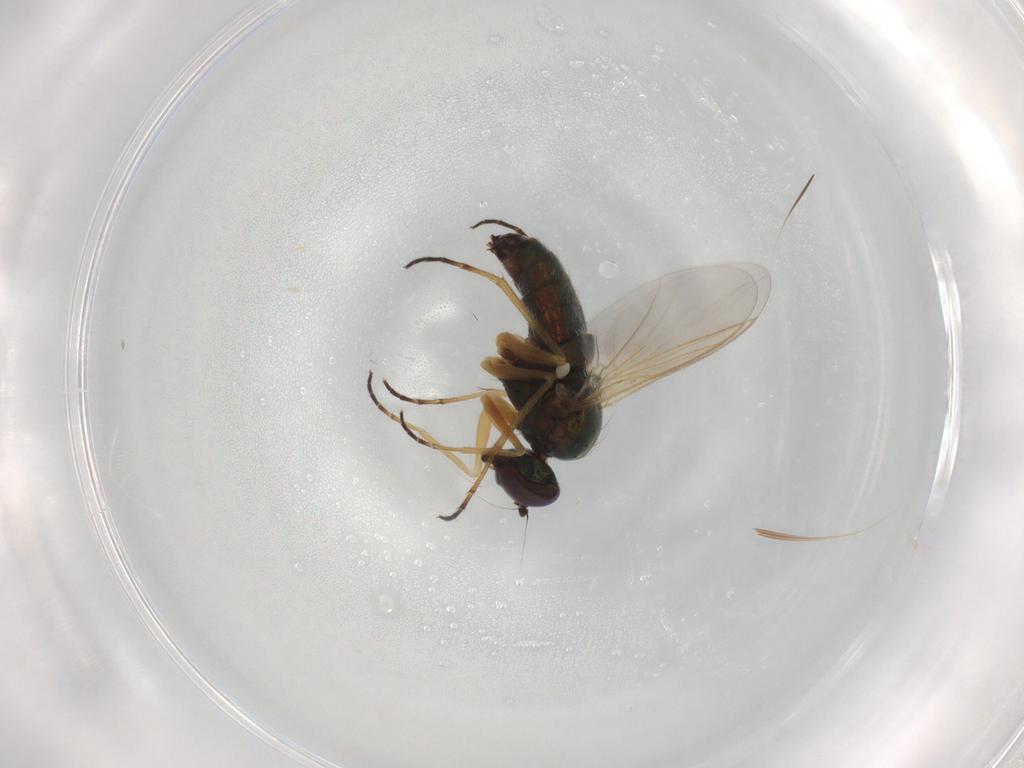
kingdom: Animalia
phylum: Arthropoda
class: Insecta
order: Diptera
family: Dolichopodidae
